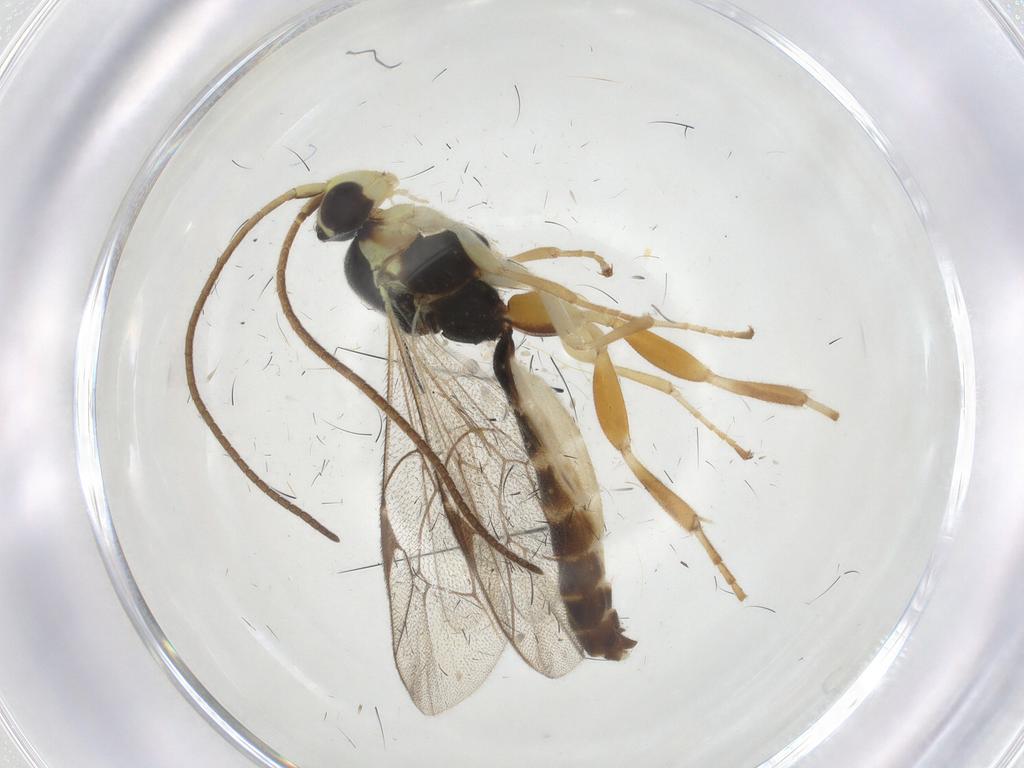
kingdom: Animalia
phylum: Arthropoda
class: Insecta
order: Hymenoptera
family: Ichneumonidae
